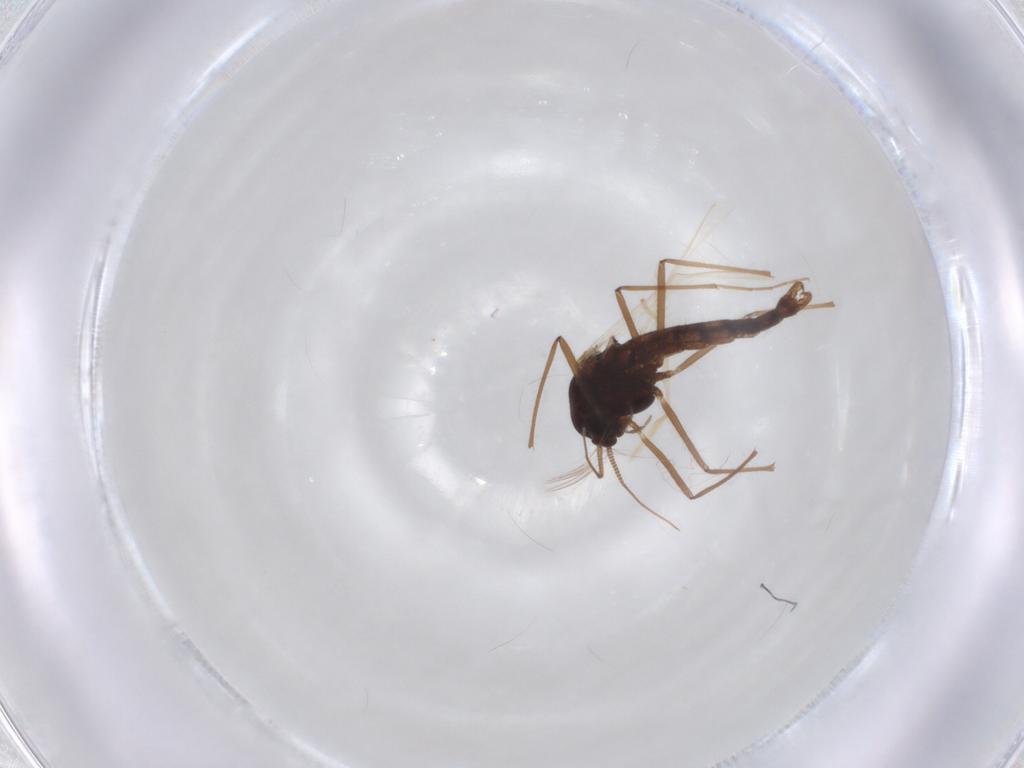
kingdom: Animalia
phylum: Arthropoda
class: Insecta
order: Diptera
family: Chironomidae
